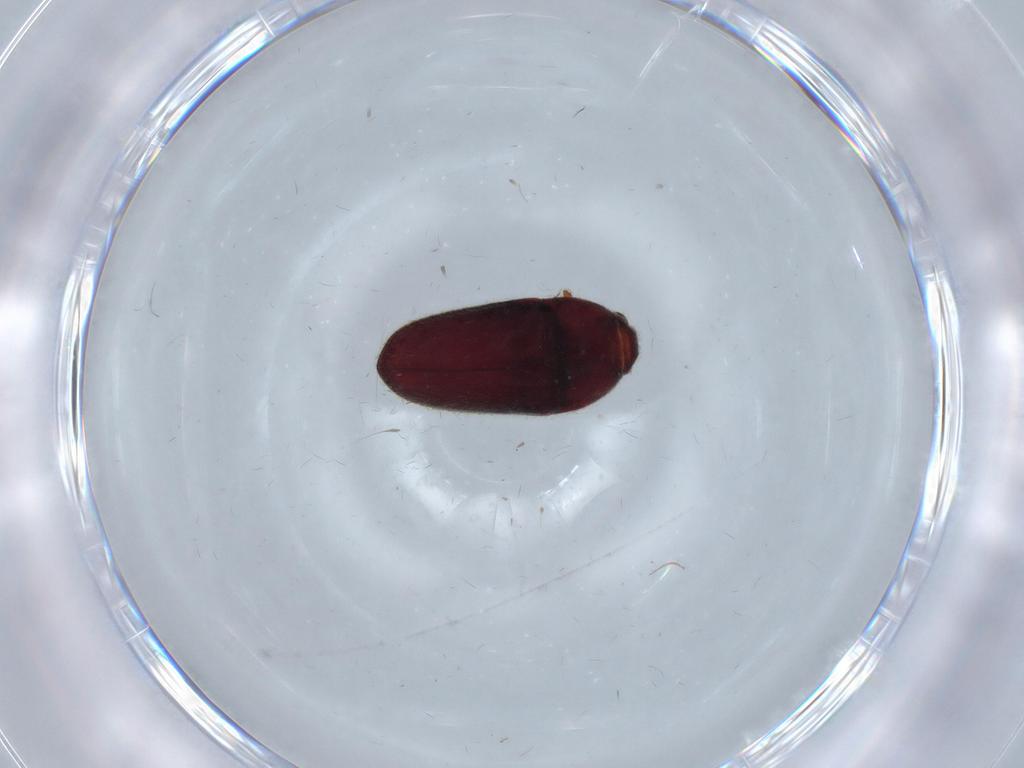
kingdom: Animalia
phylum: Arthropoda
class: Insecta
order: Coleoptera
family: Throscidae
